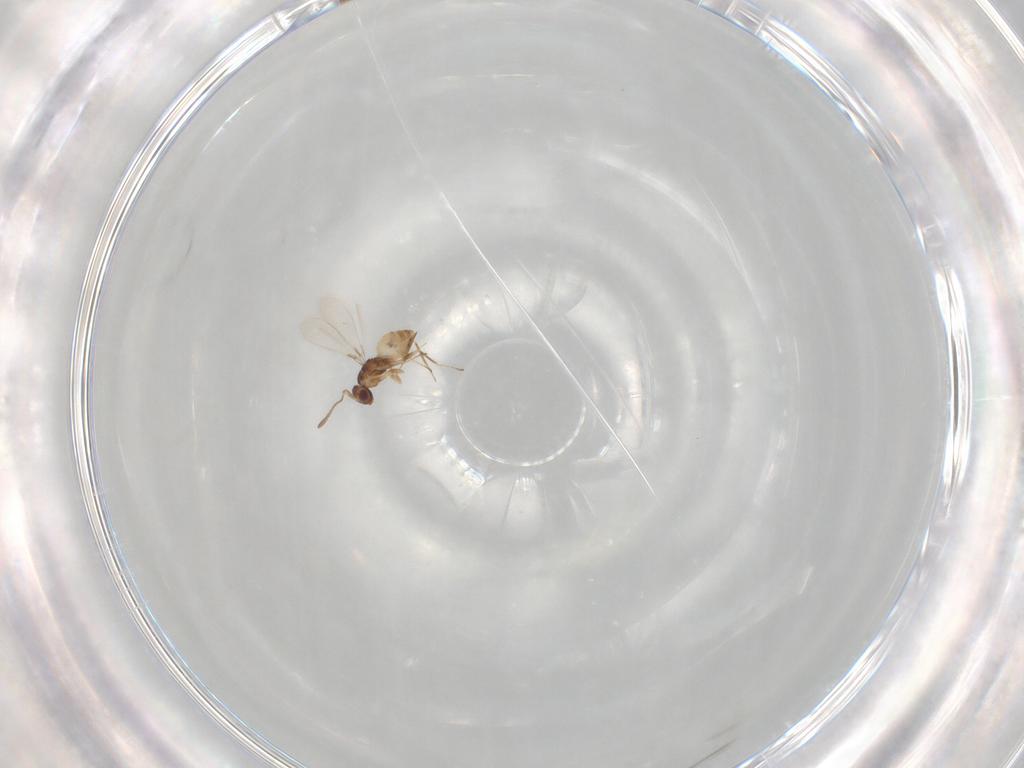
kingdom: Animalia
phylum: Arthropoda
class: Insecta
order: Hymenoptera
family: Mymaridae
